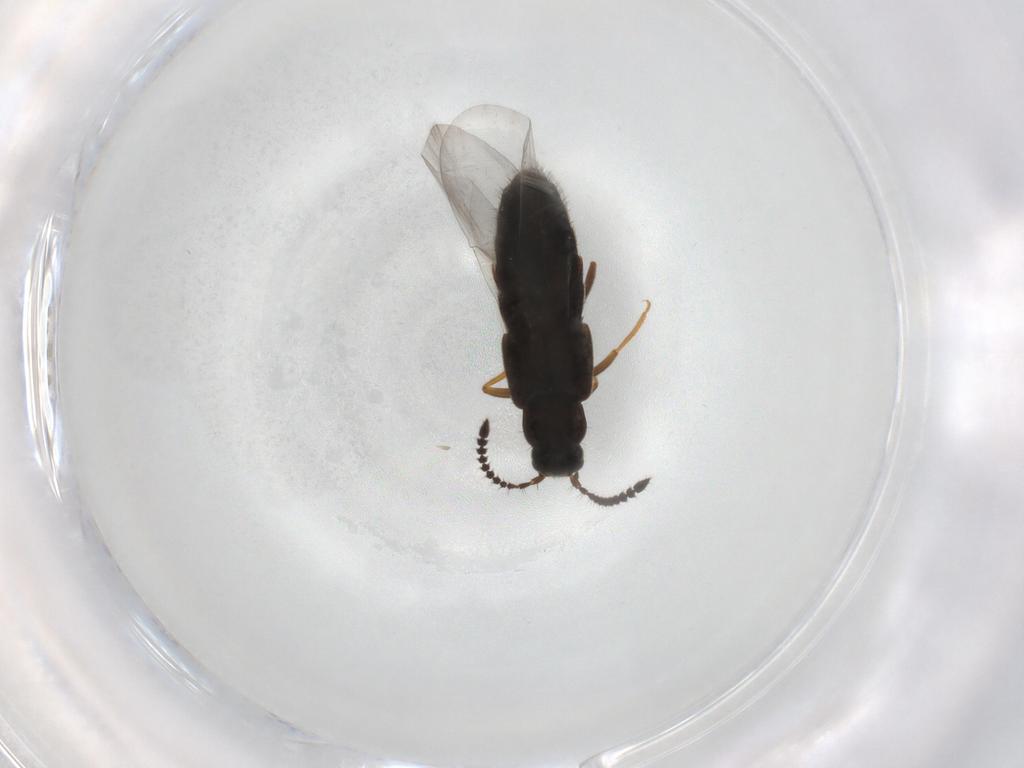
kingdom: Animalia
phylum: Arthropoda
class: Insecta
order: Coleoptera
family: Staphylinidae
